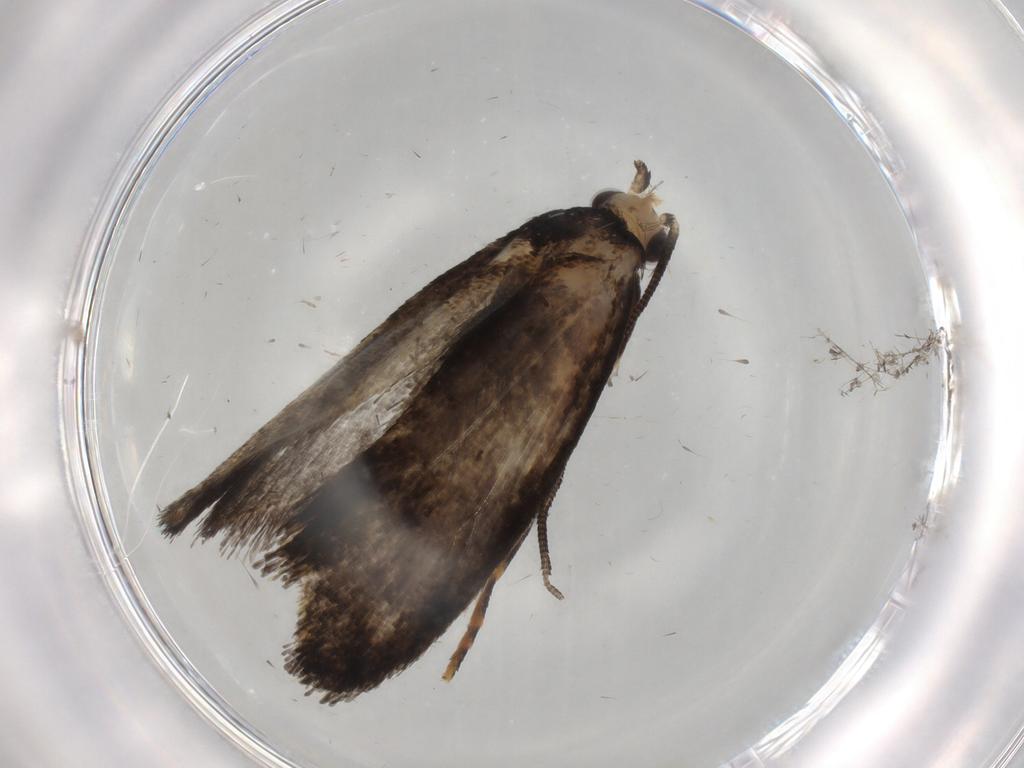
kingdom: Animalia
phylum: Arthropoda
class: Insecta
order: Lepidoptera
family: Tineidae
